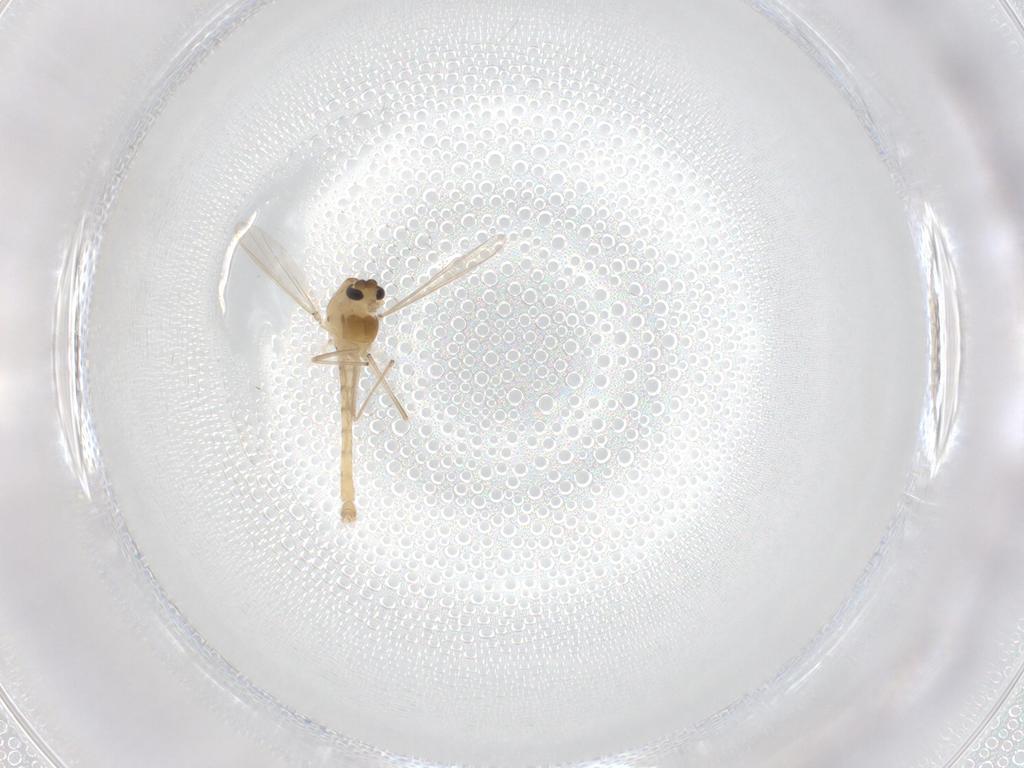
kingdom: Animalia
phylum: Arthropoda
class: Insecta
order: Diptera
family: Chironomidae
